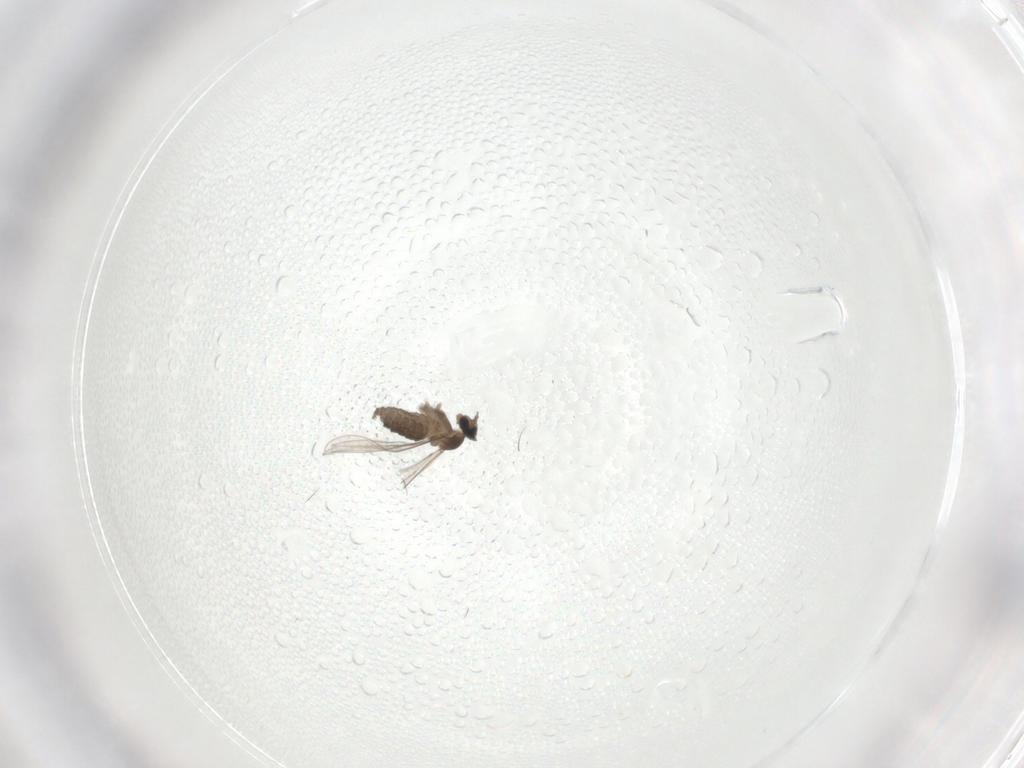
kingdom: Animalia
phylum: Arthropoda
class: Insecta
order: Diptera
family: Cecidomyiidae
